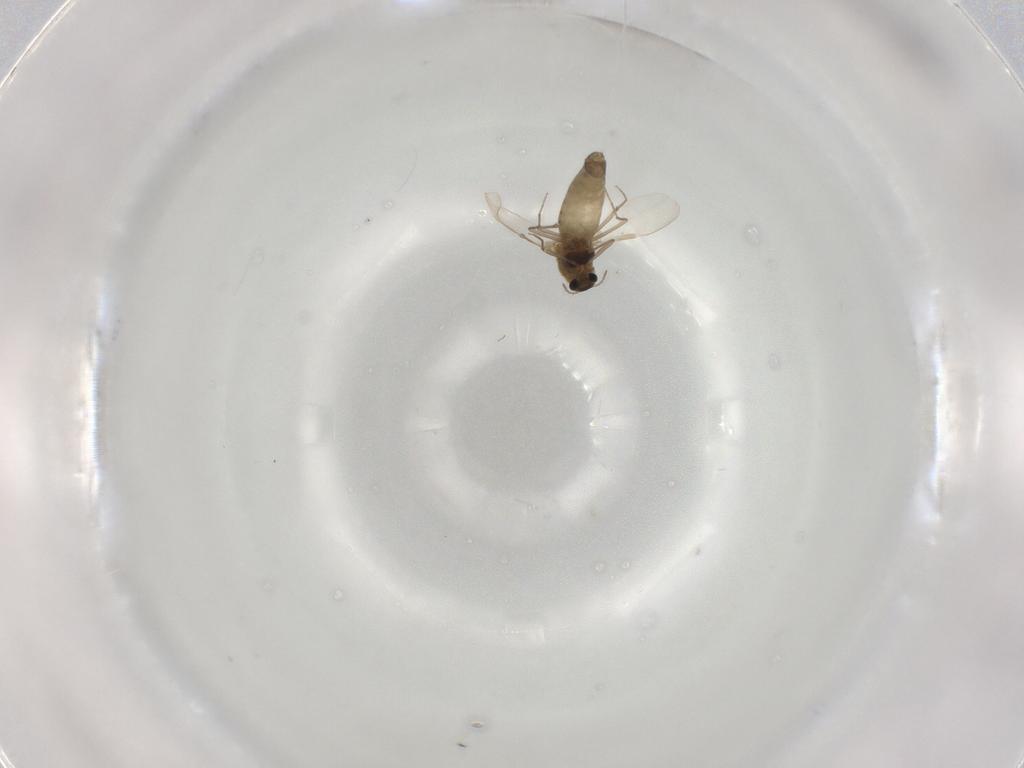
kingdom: Animalia
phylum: Arthropoda
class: Insecta
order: Diptera
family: Chironomidae
